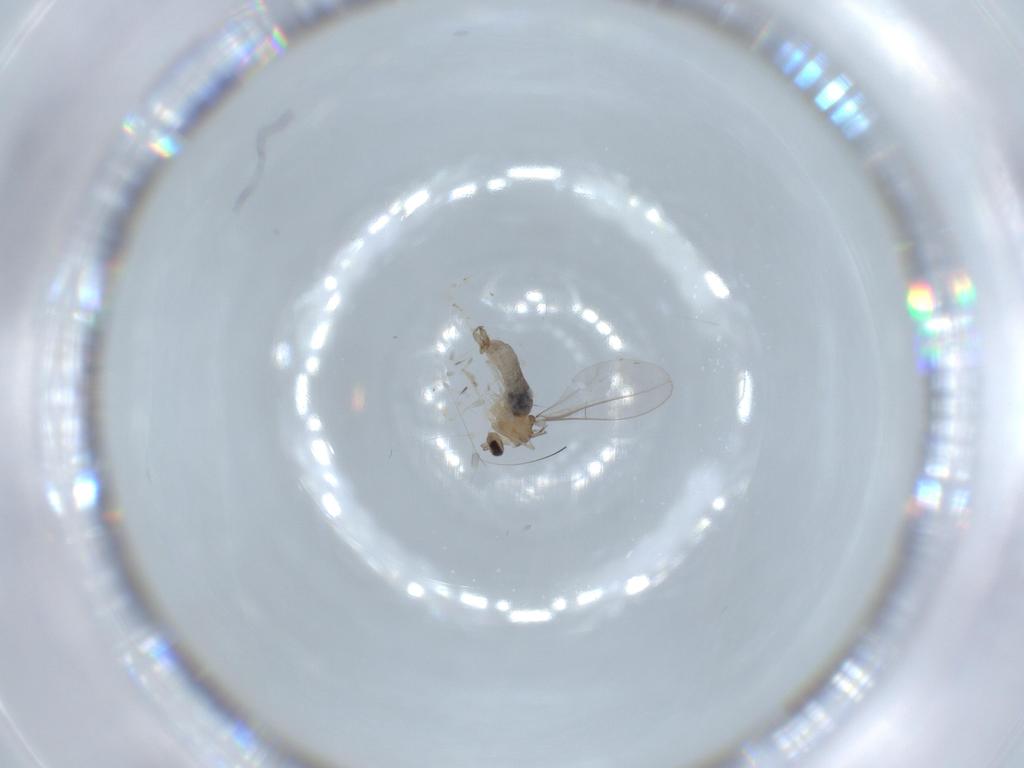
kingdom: Animalia
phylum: Arthropoda
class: Insecta
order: Diptera
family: Cecidomyiidae
